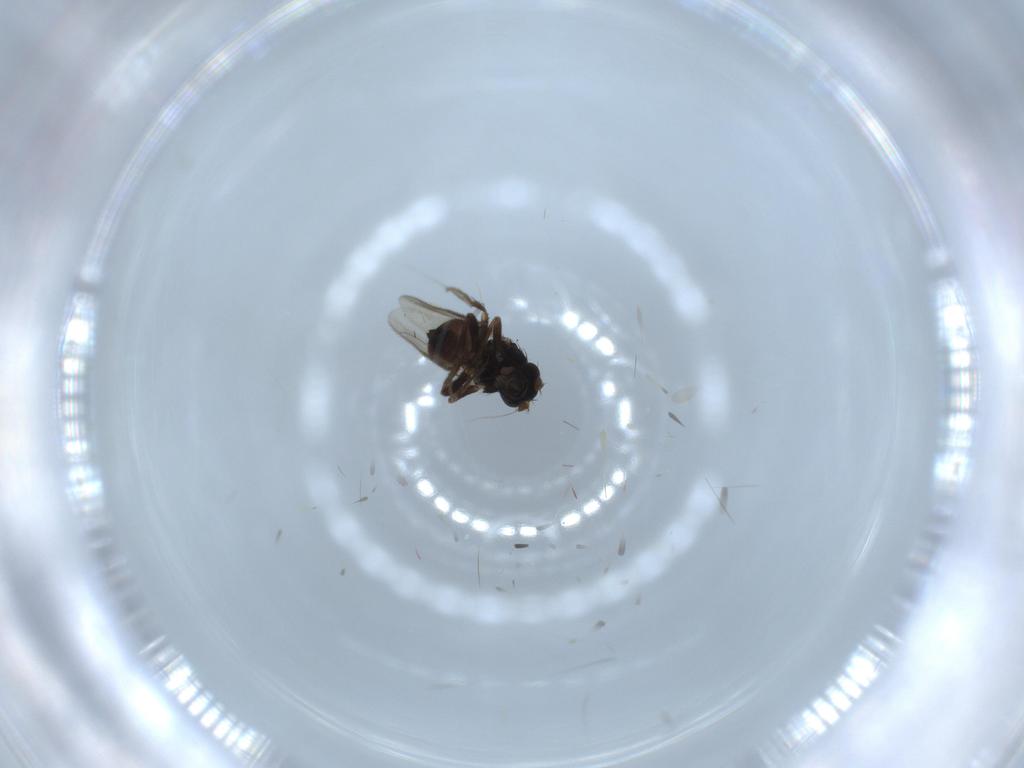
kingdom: Animalia
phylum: Arthropoda
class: Insecta
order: Diptera
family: Sphaeroceridae
